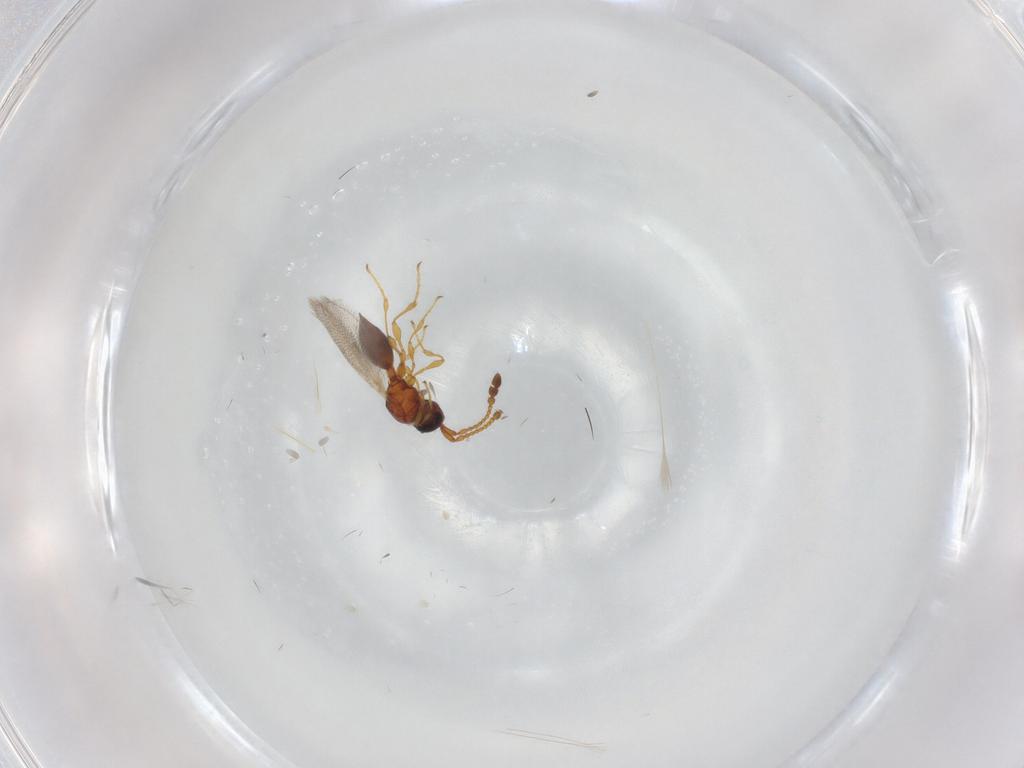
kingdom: Animalia
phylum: Arthropoda
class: Insecta
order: Hymenoptera
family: Diapriidae
